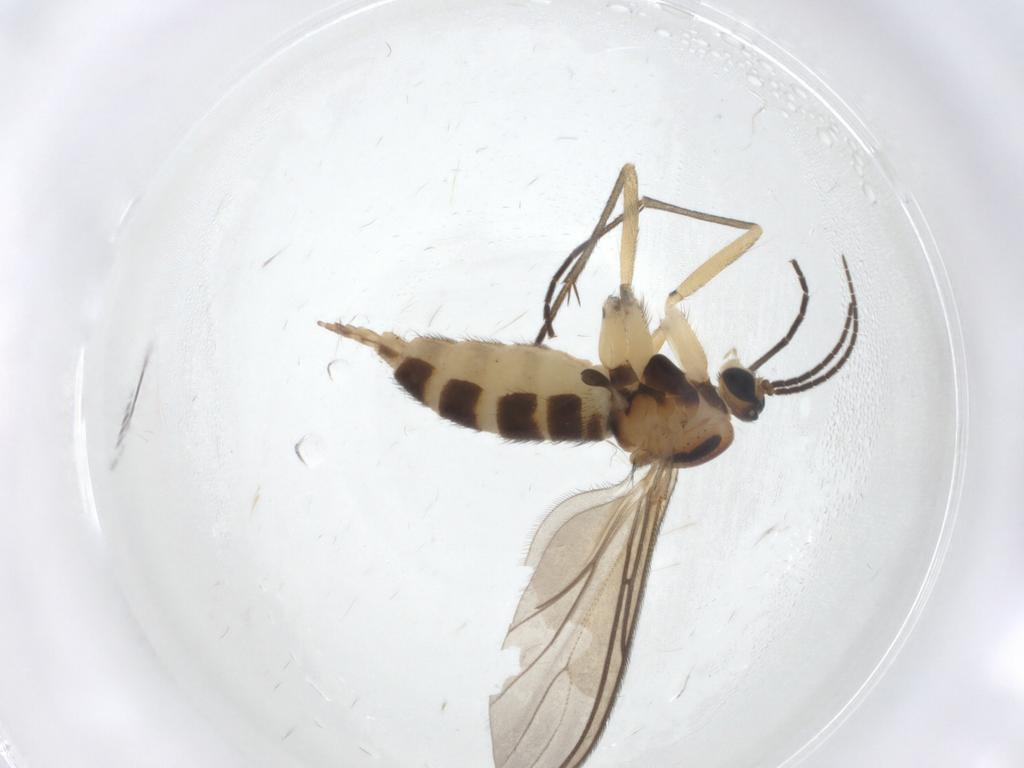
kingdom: Animalia
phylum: Arthropoda
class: Insecta
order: Diptera
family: Sciaridae
